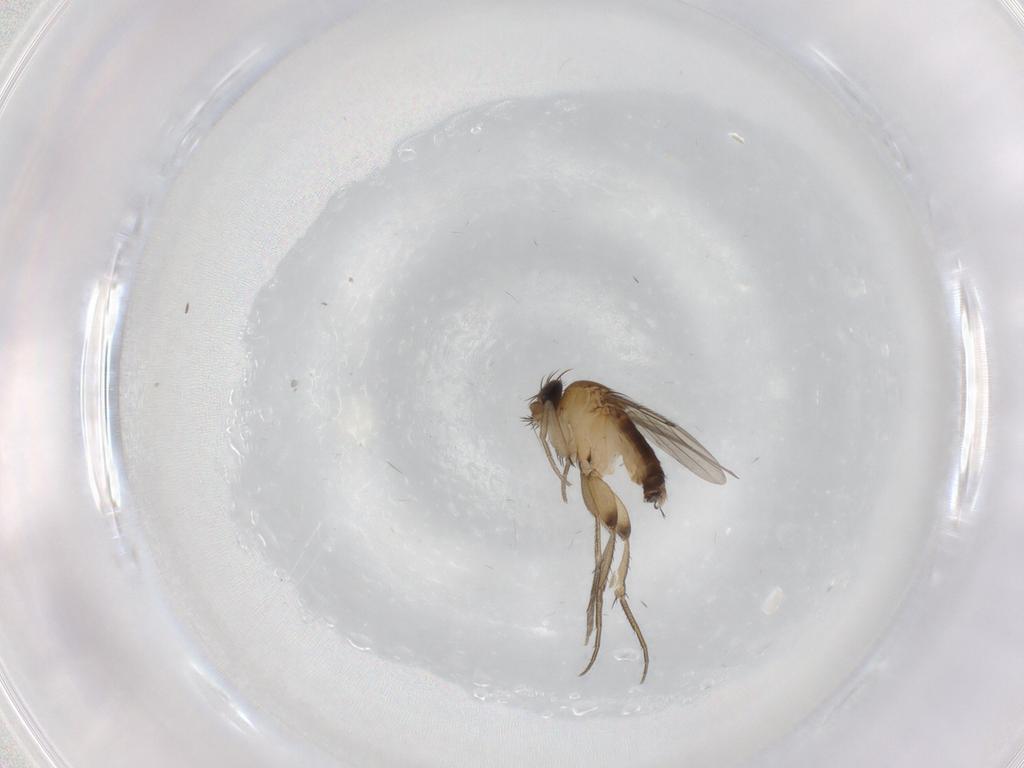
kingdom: Animalia
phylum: Arthropoda
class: Insecta
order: Diptera
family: Phoridae
